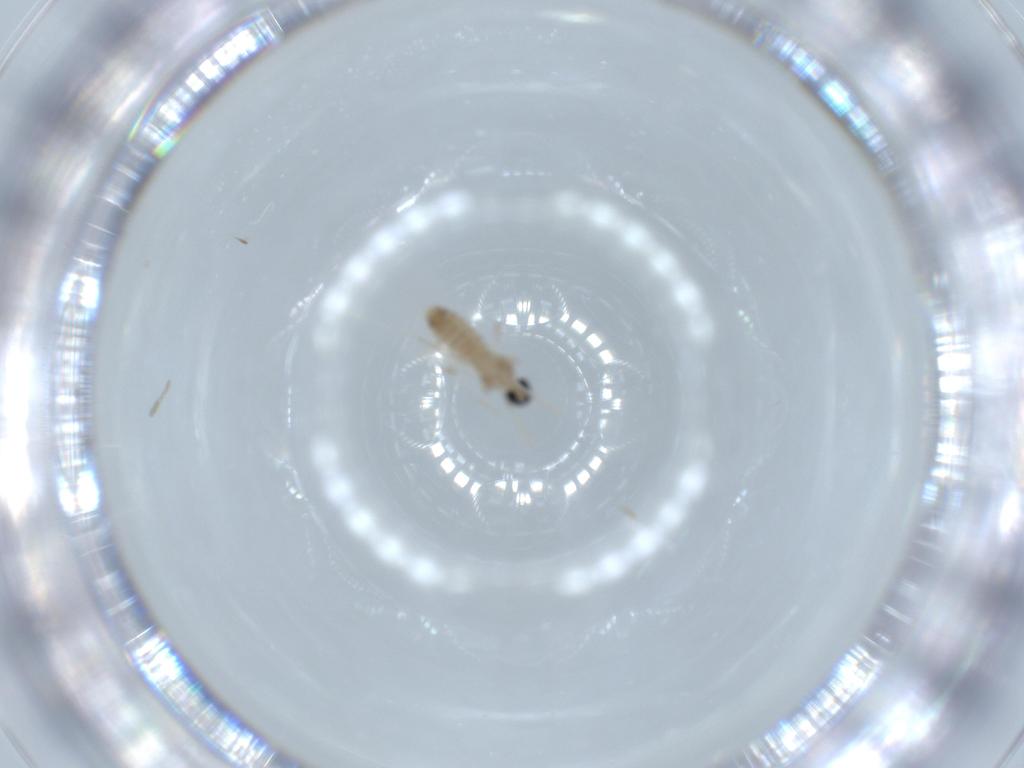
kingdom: Animalia
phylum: Arthropoda
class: Insecta
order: Diptera
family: Cecidomyiidae
